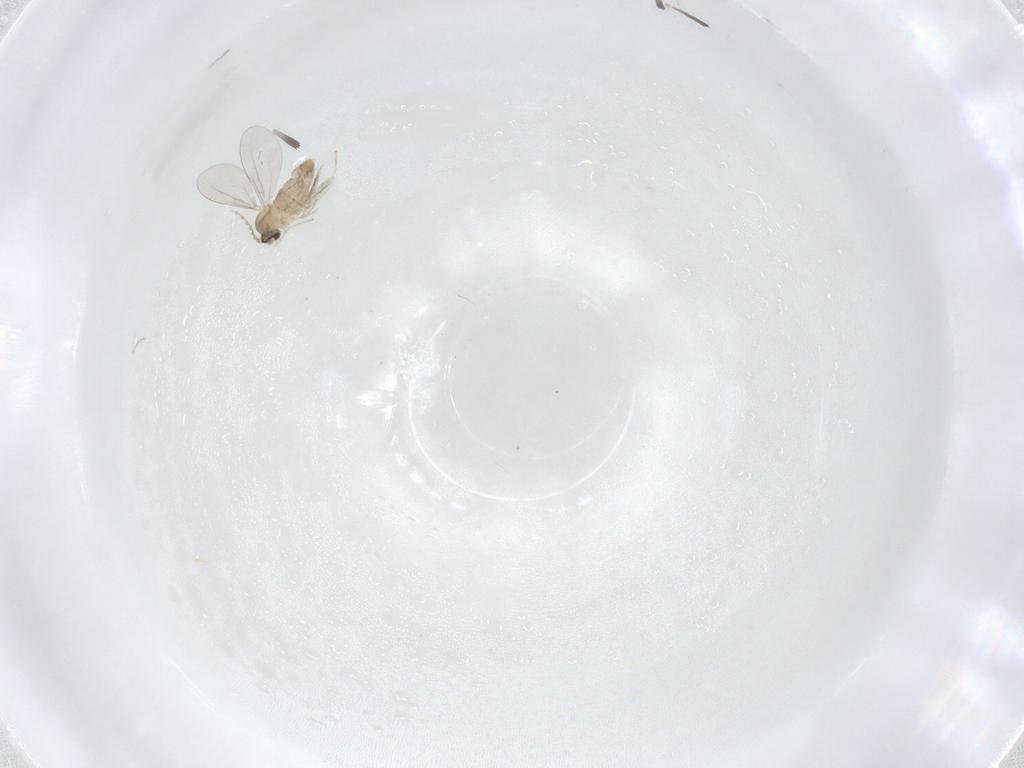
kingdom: Animalia
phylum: Arthropoda
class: Insecta
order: Diptera
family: Cecidomyiidae
